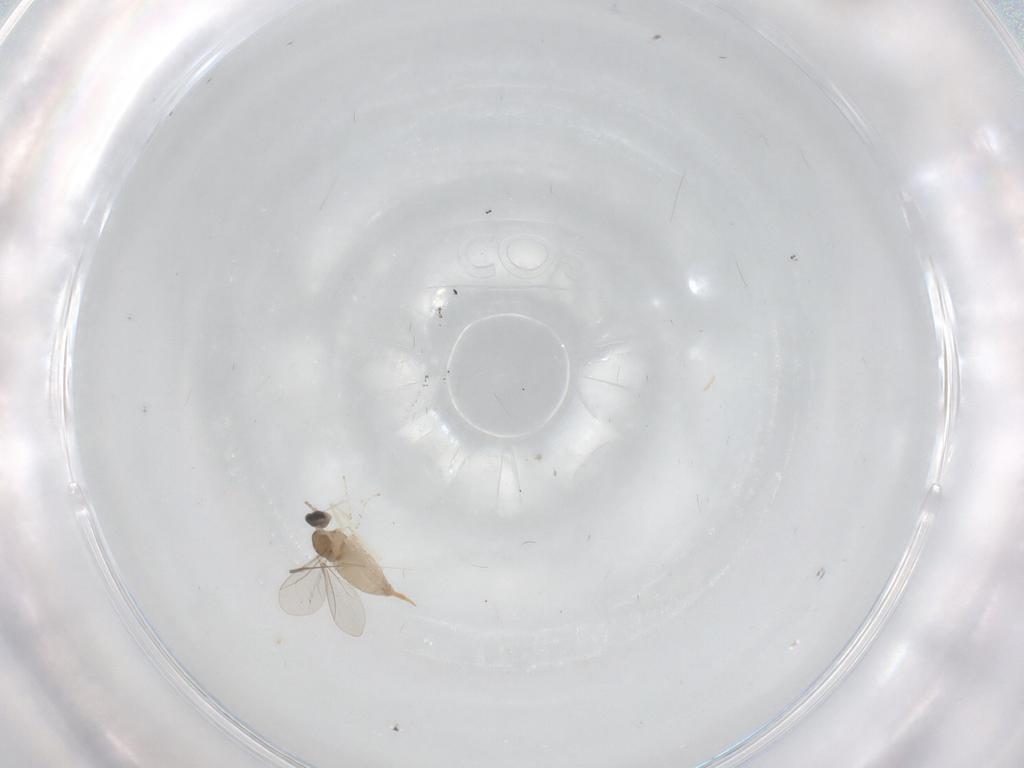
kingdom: Animalia
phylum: Arthropoda
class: Insecta
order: Diptera
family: Cecidomyiidae
